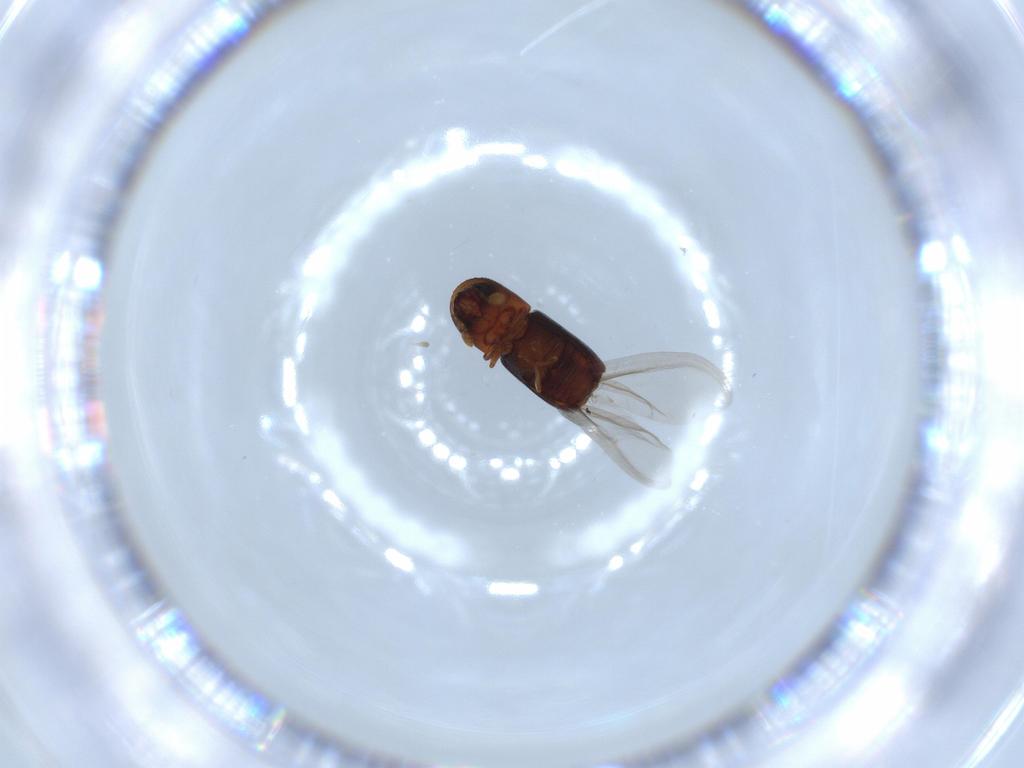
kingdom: Animalia
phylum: Arthropoda
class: Insecta
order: Coleoptera
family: Curculionidae
